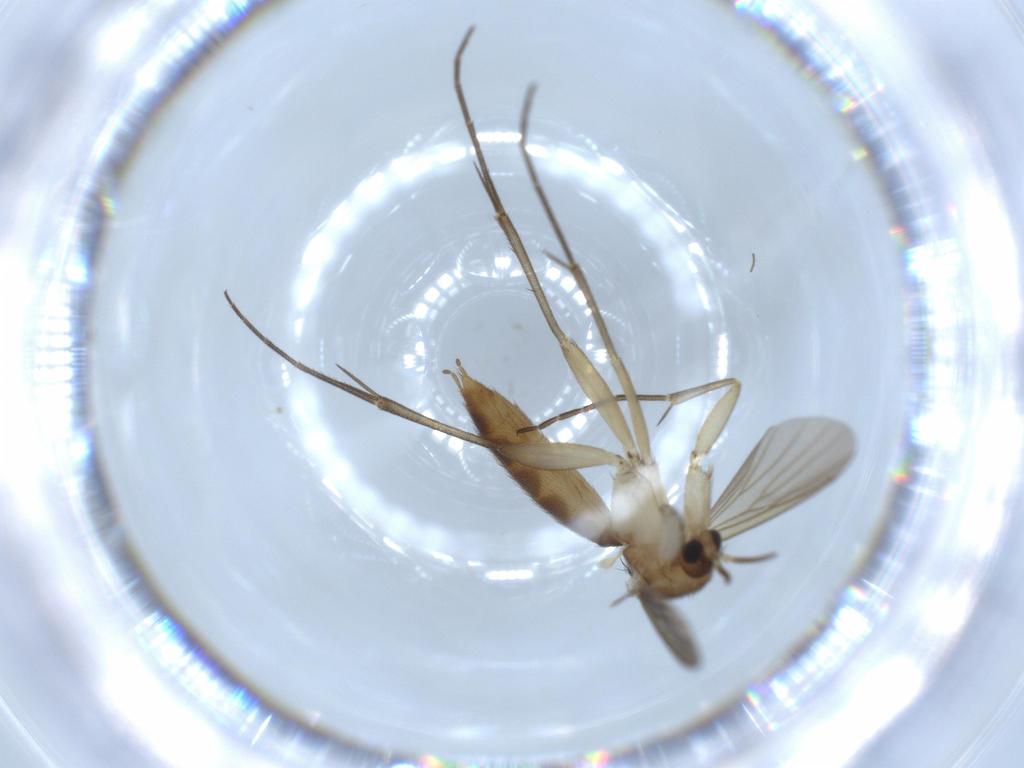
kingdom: Animalia
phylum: Arthropoda
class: Insecta
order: Diptera
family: Mycetophilidae
